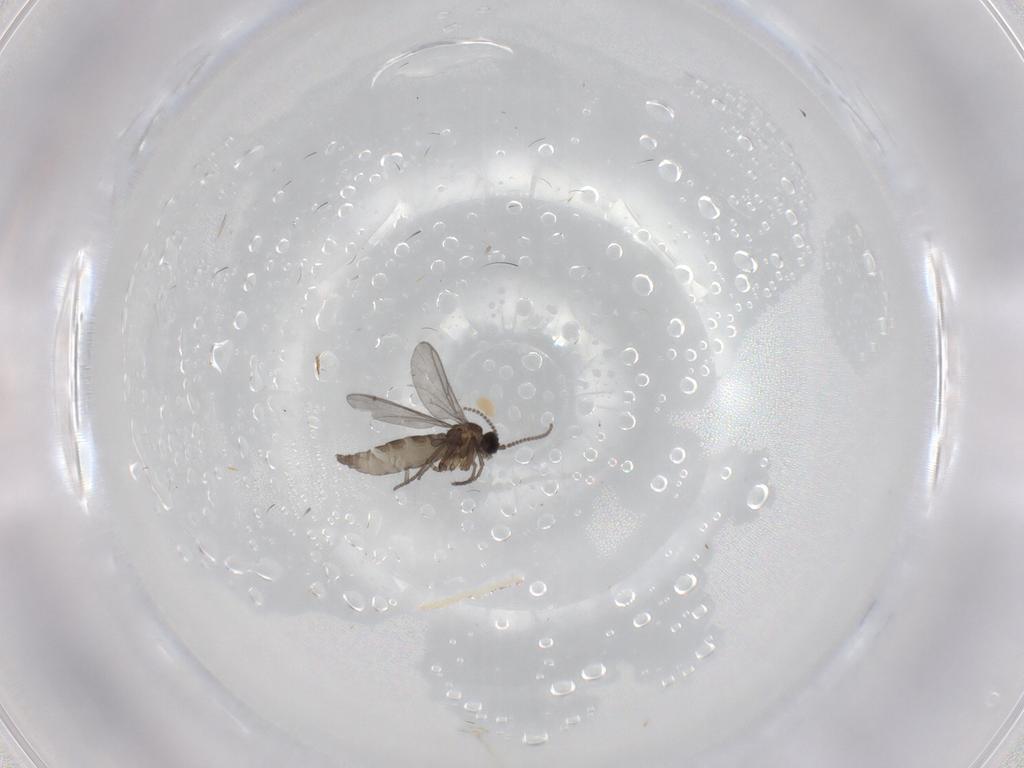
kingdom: Animalia
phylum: Arthropoda
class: Insecta
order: Diptera
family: Sciaridae
